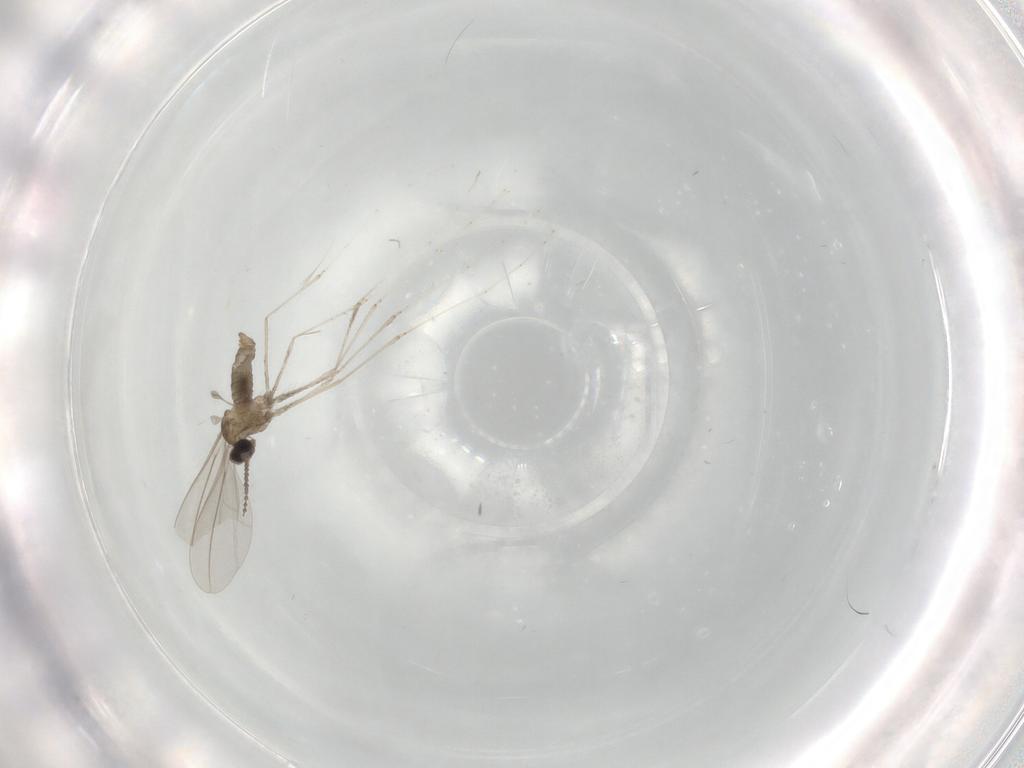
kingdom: Animalia
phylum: Arthropoda
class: Insecta
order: Diptera
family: Cecidomyiidae
